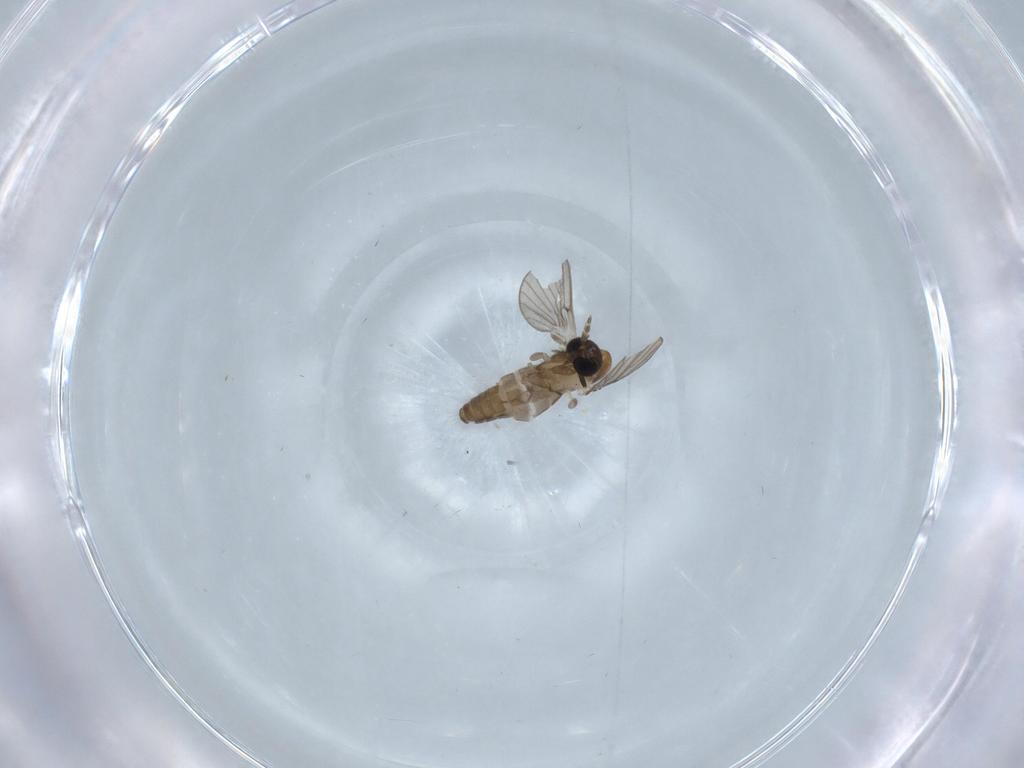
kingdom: Animalia
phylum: Arthropoda
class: Insecta
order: Diptera
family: Psychodidae
